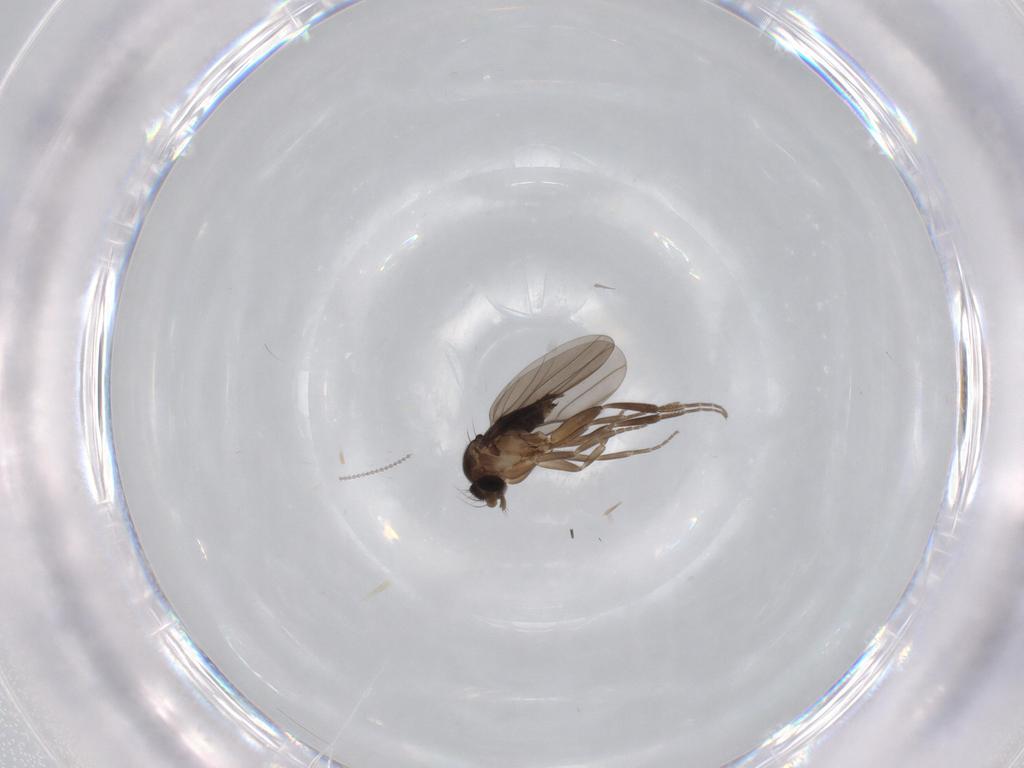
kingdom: Animalia
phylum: Arthropoda
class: Insecta
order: Diptera
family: Phoridae
